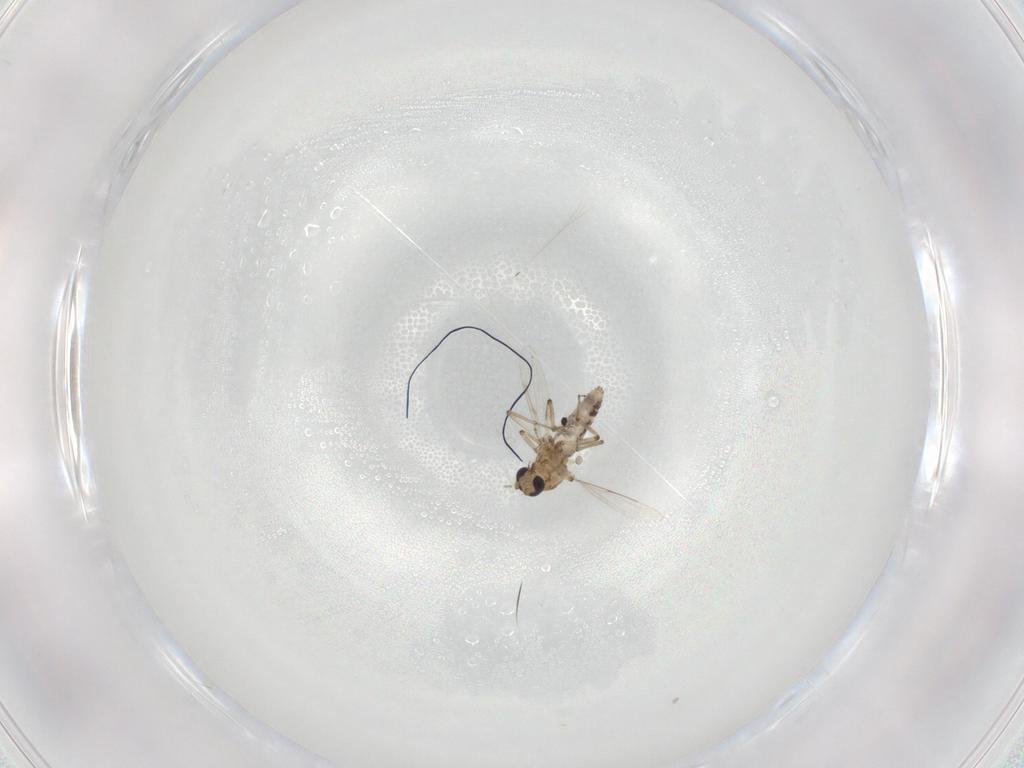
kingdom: Animalia
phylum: Arthropoda
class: Insecta
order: Diptera
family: Ceratopogonidae
